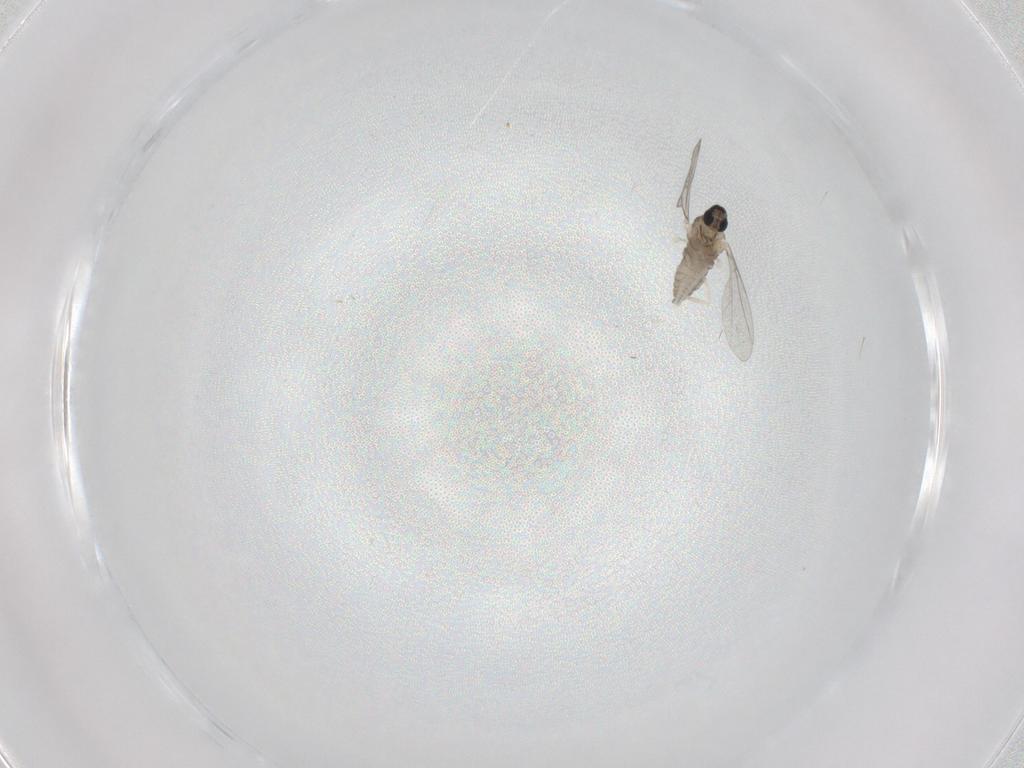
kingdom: Animalia
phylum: Arthropoda
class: Insecta
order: Diptera
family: Cecidomyiidae
